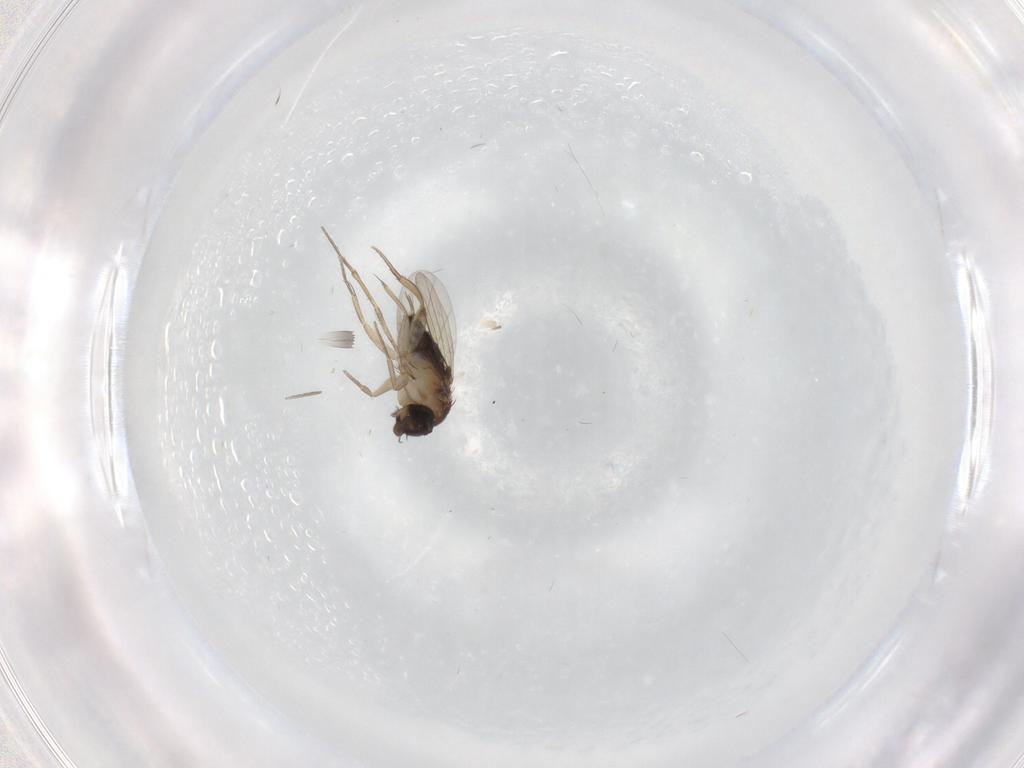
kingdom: Animalia
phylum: Arthropoda
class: Insecta
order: Diptera
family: Phoridae
